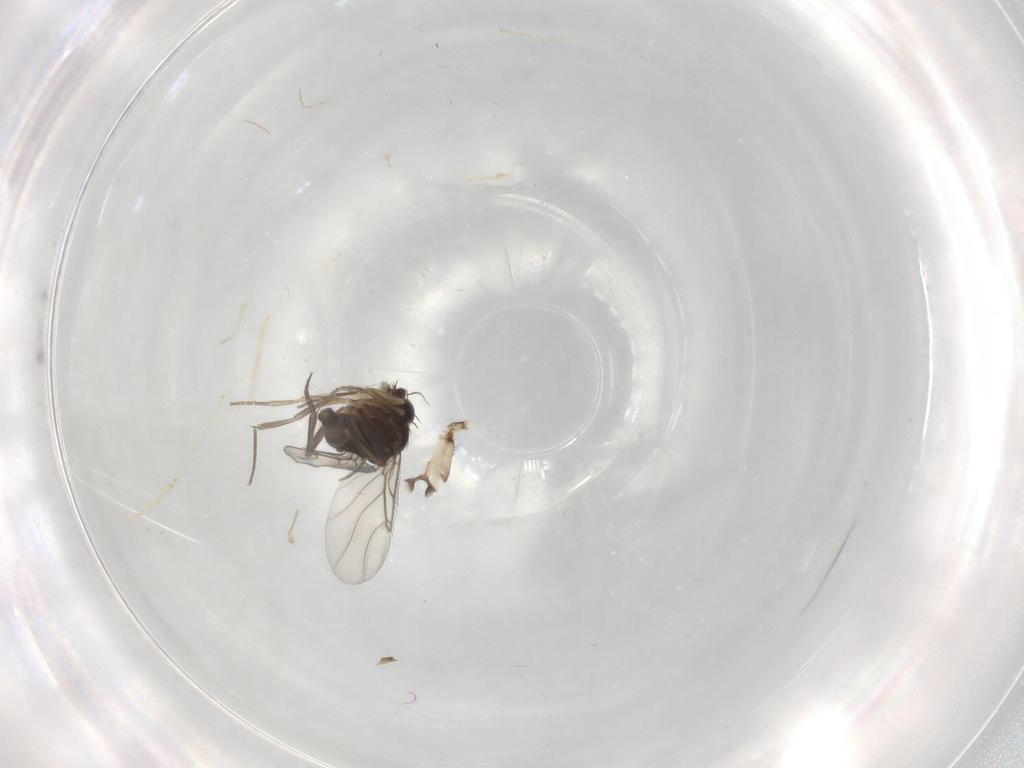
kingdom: Animalia
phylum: Arthropoda
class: Insecta
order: Diptera
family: Phoridae
